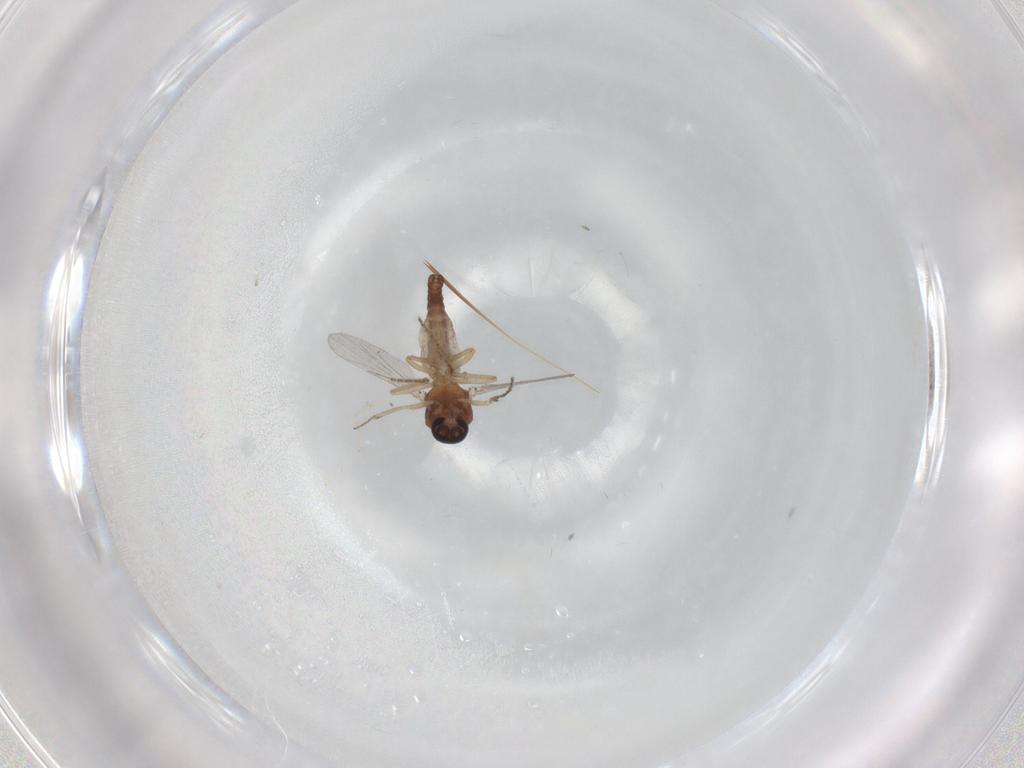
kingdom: Animalia
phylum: Arthropoda
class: Insecta
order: Diptera
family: Ceratopogonidae
